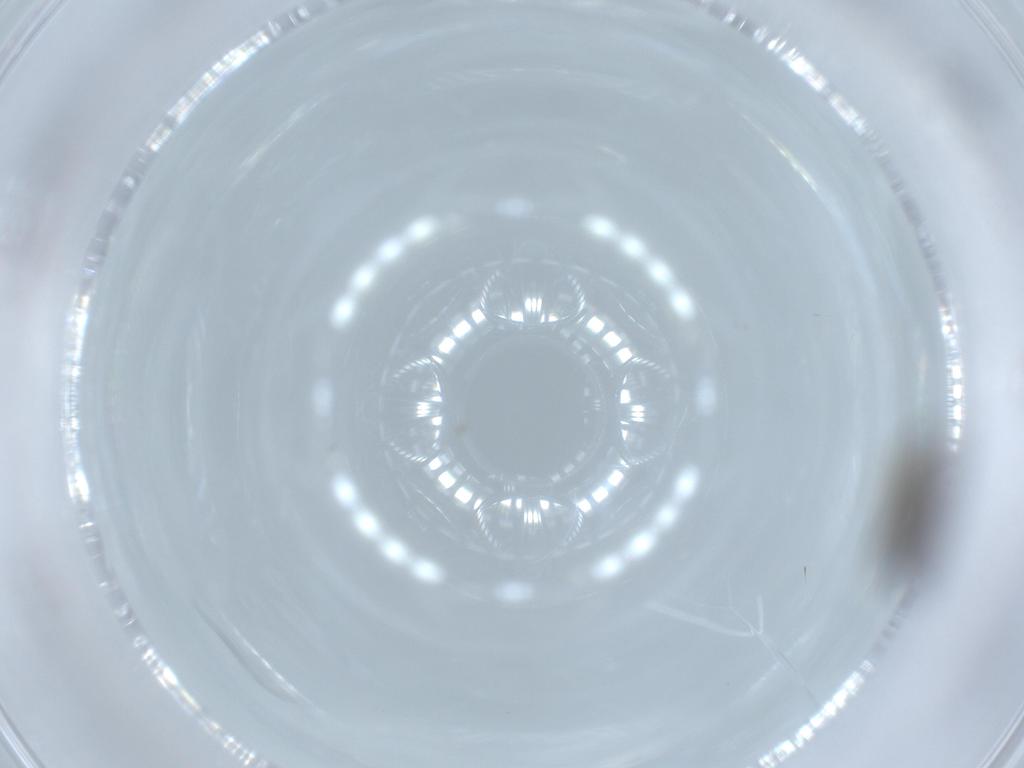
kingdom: Animalia
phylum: Arthropoda
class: Insecta
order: Diptera
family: Phoridae
